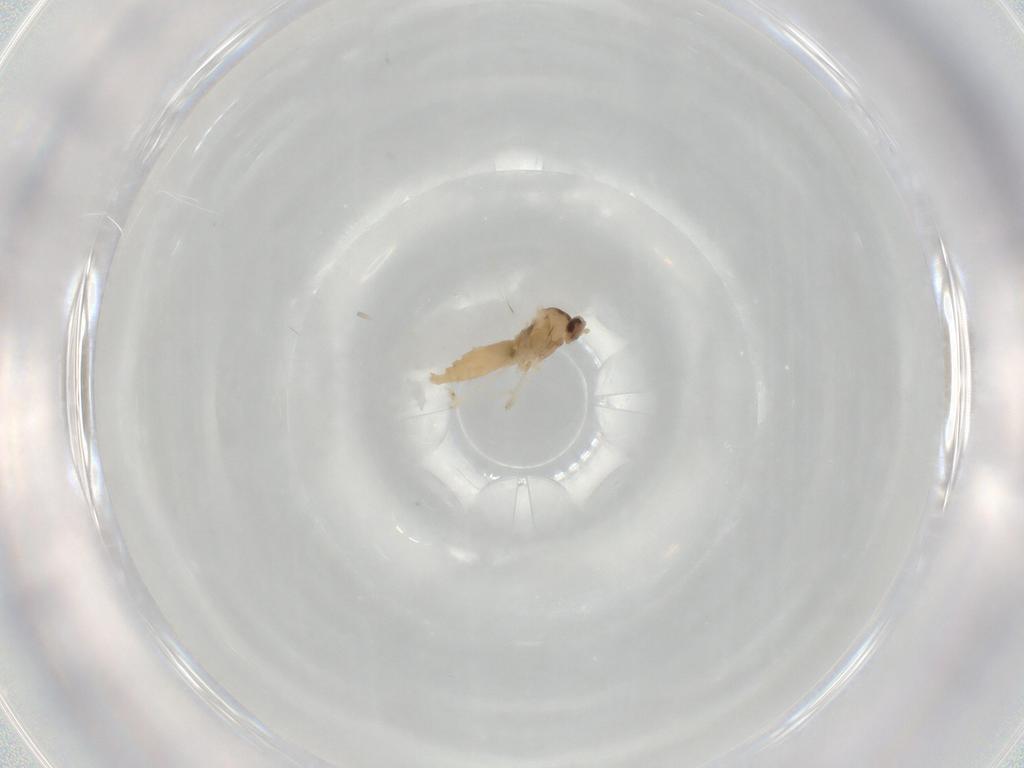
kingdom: Animalia
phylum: Arthropoda
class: Insecta
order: Diptera
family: Cecidomyiidae
